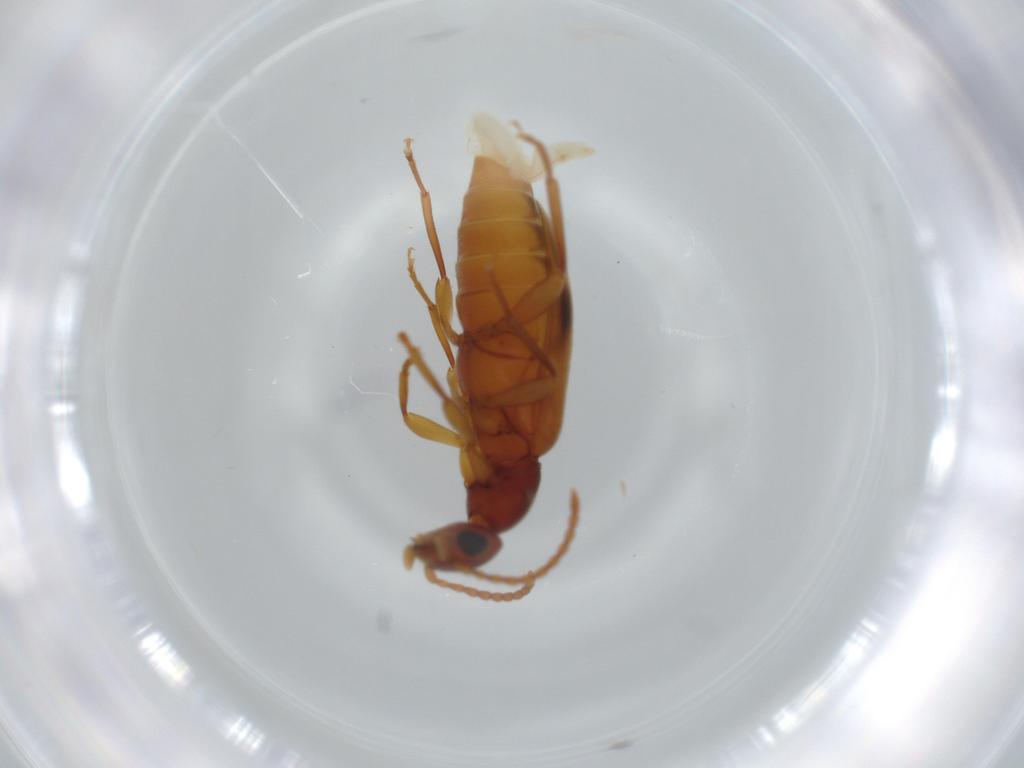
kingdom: Animalia
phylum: Arthropoda
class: Insecta
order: Coleoptera
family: Anthicidae
